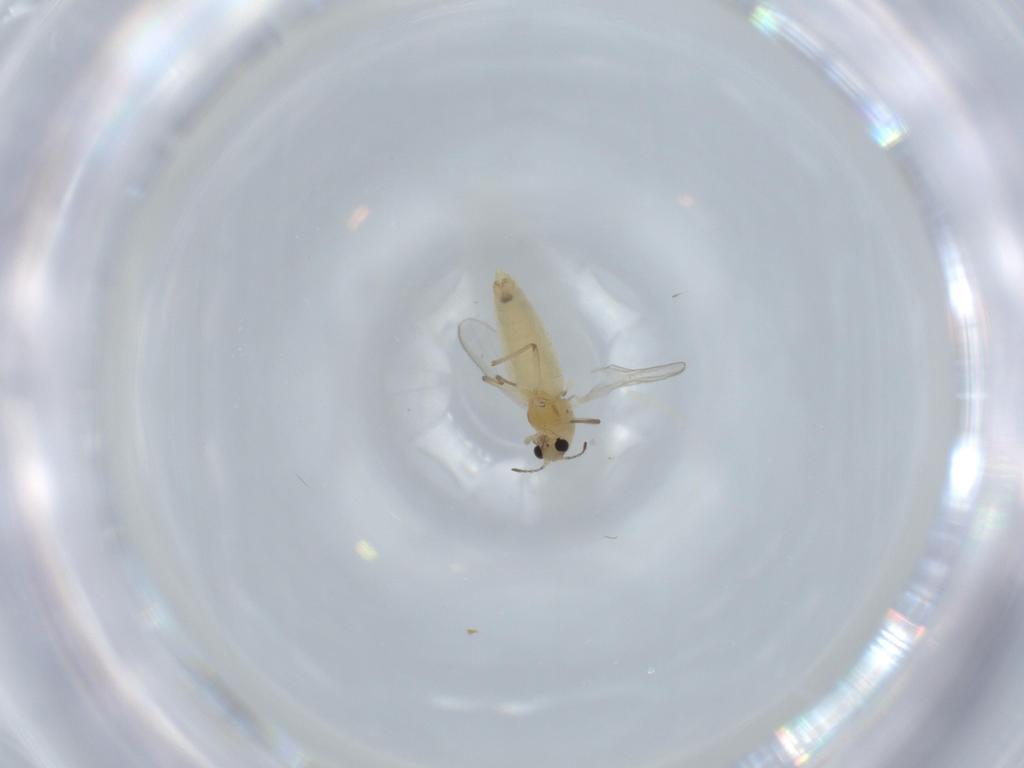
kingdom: Animalia
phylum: Arthropoda
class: Insecta
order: Diptera
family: Chironomidae
